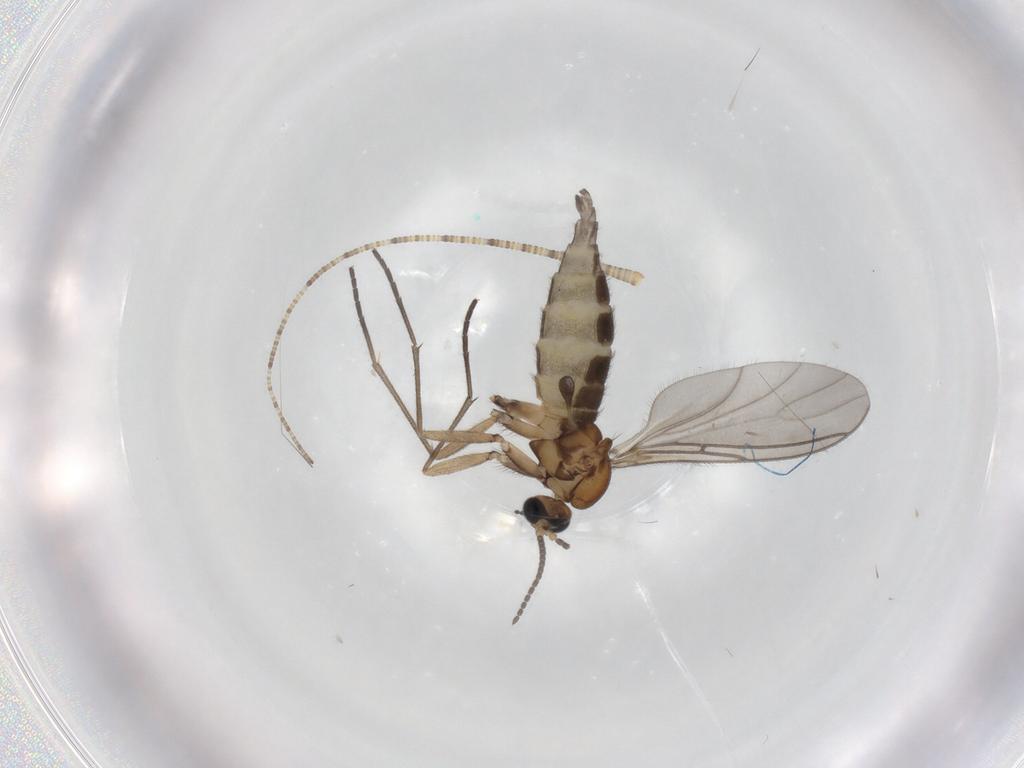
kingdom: Animalia
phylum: Arthropoda
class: Insecta
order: Diptera
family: Sciaridae
